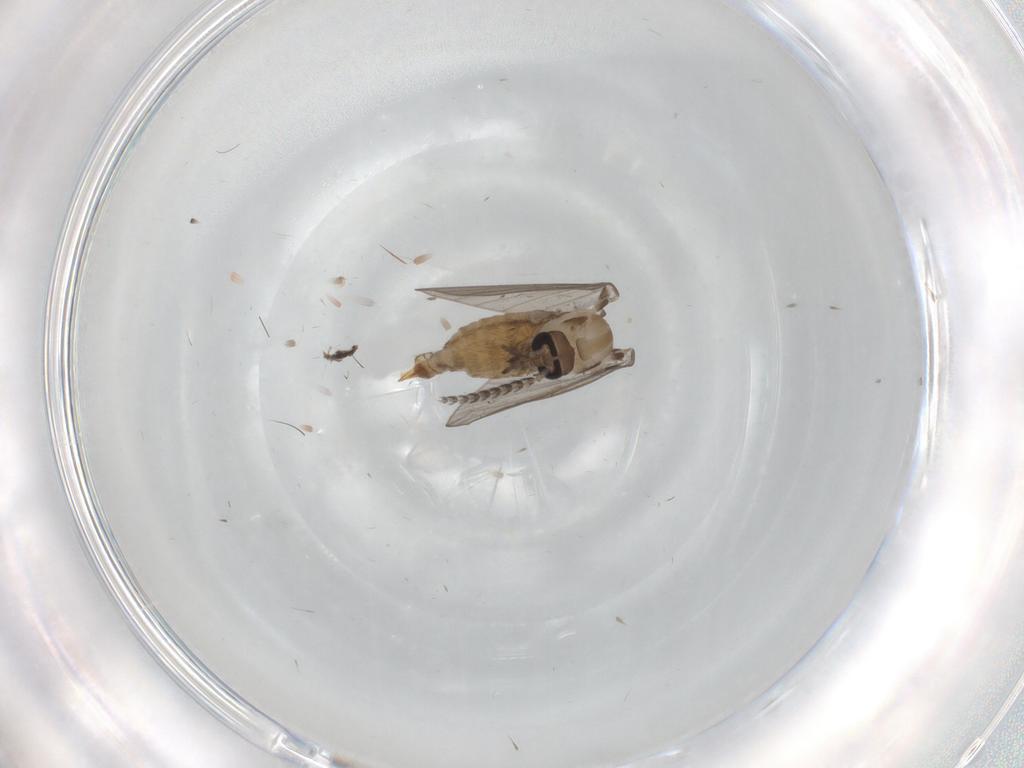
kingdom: Animalia
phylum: Arthropoda
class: Insecta
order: Diptera
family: Psychodidae
